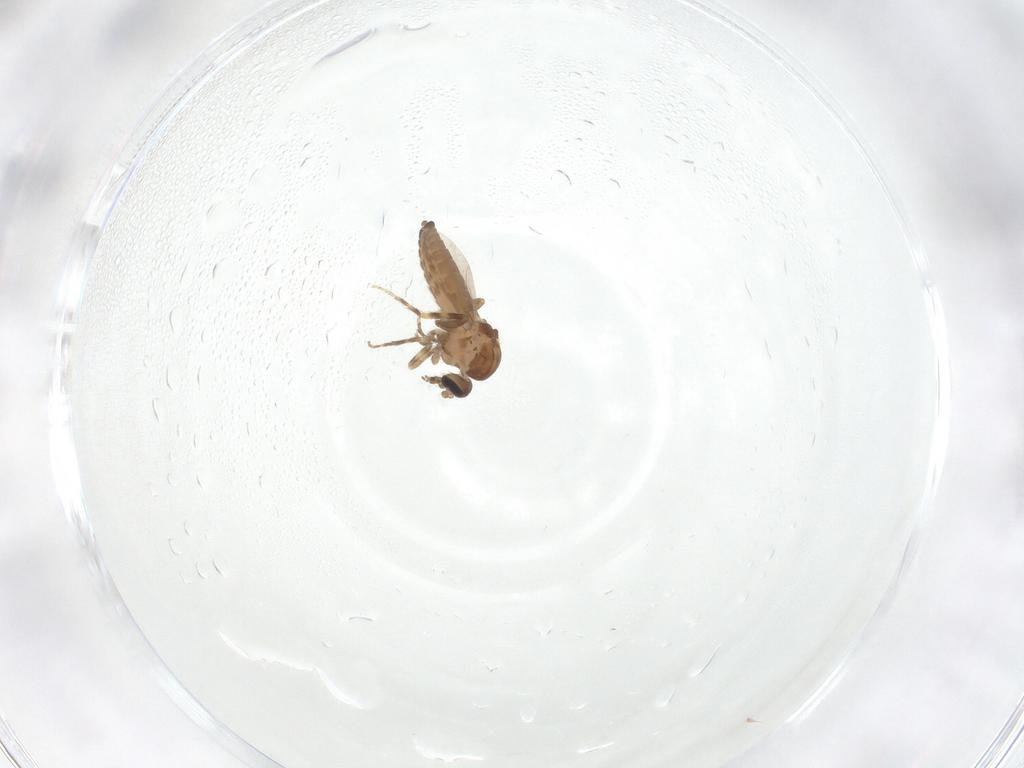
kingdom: Animalia
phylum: Arthropoda
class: Insecta
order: Diptera
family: Ceratopogonidae
